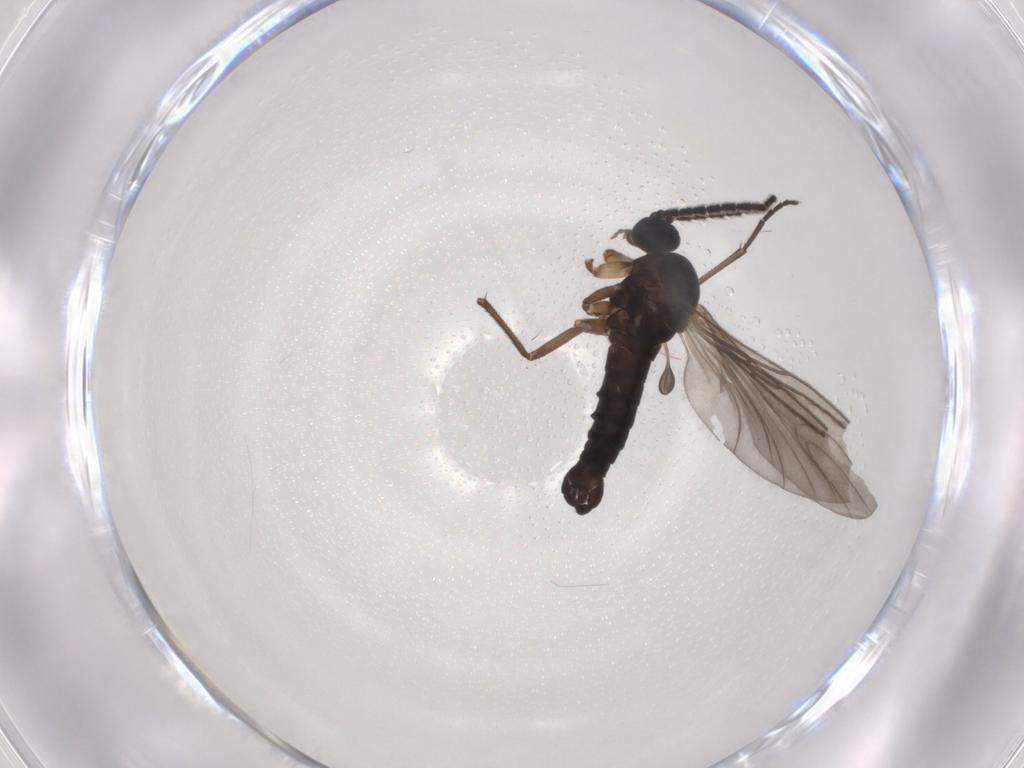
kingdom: Animalia
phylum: Arthropoda
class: Insecta
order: Diptera
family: Sciaridae
